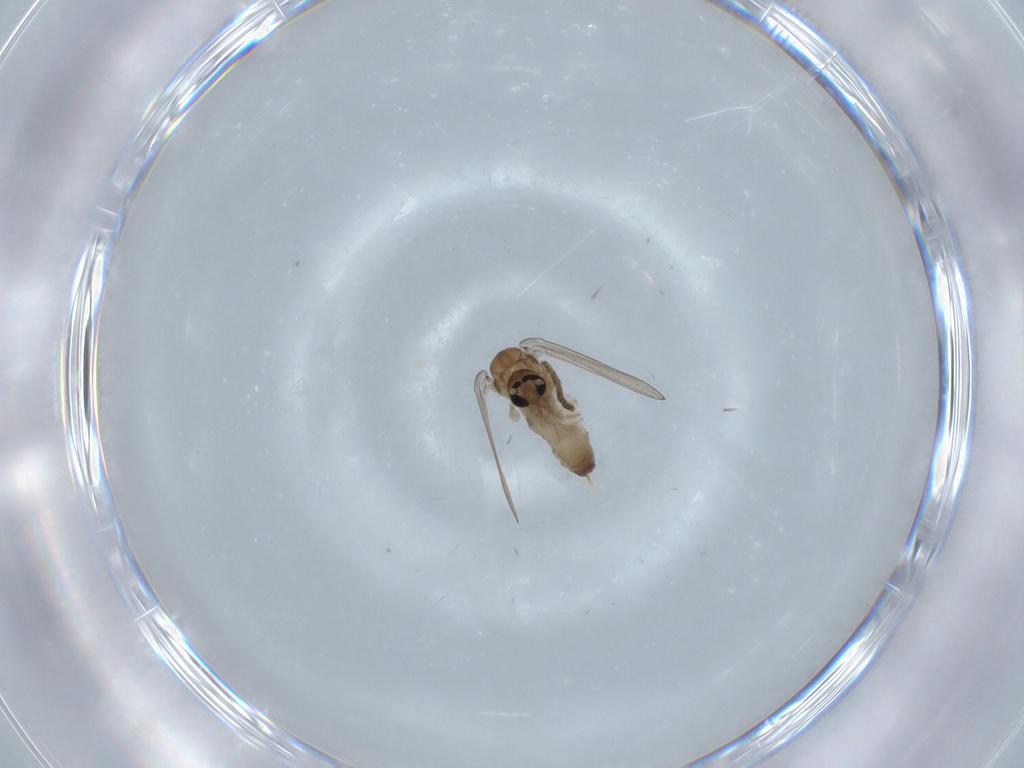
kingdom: Animalia
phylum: Arthropoda
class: Insecta
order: Diptera
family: Psychodidae
